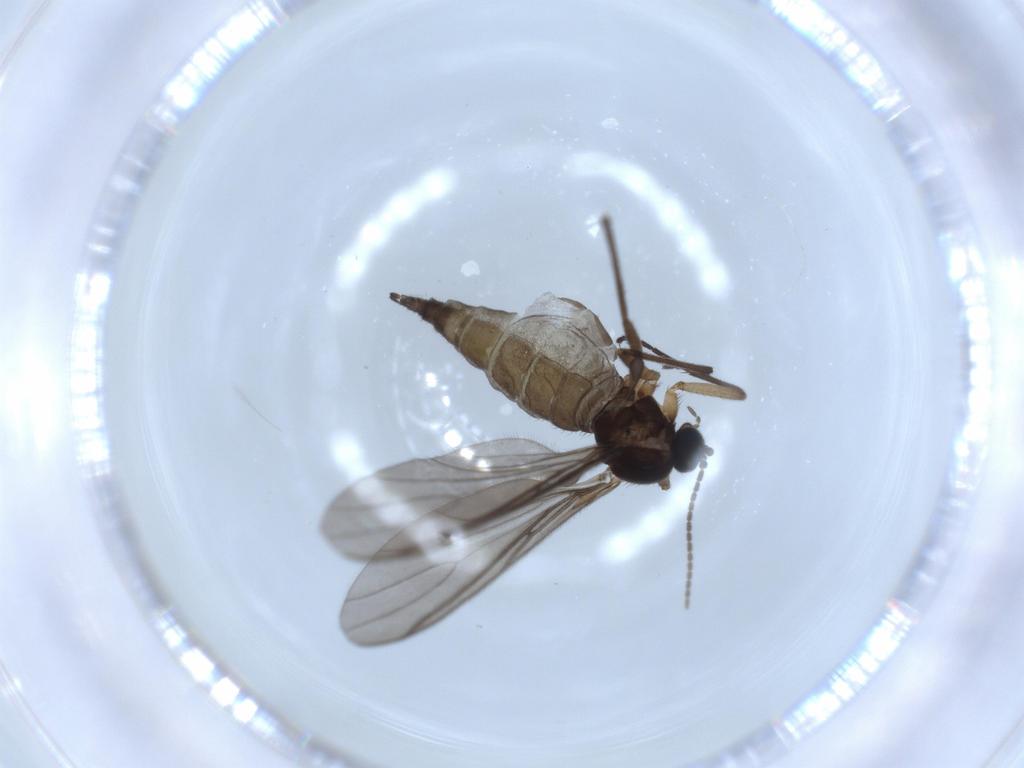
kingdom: Animalia
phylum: Arthropoda
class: Insecta
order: Diptera
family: Sciaridae
